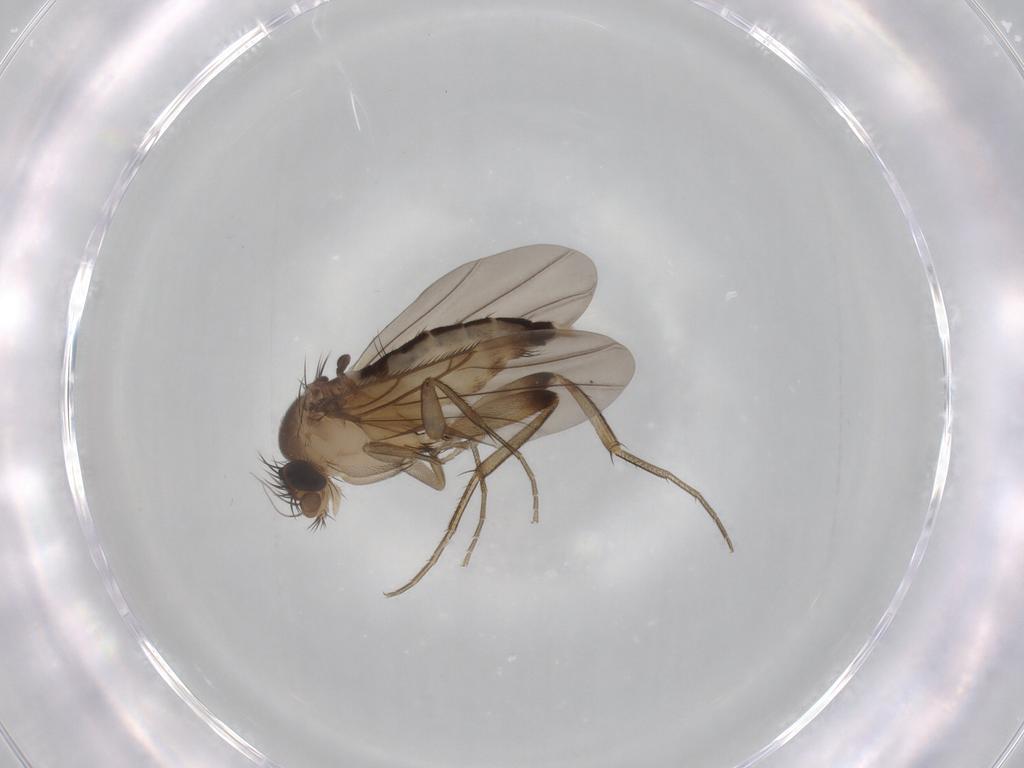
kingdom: Animalia
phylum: Arthropoda
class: Insecta
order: Diptera
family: Phoridae
